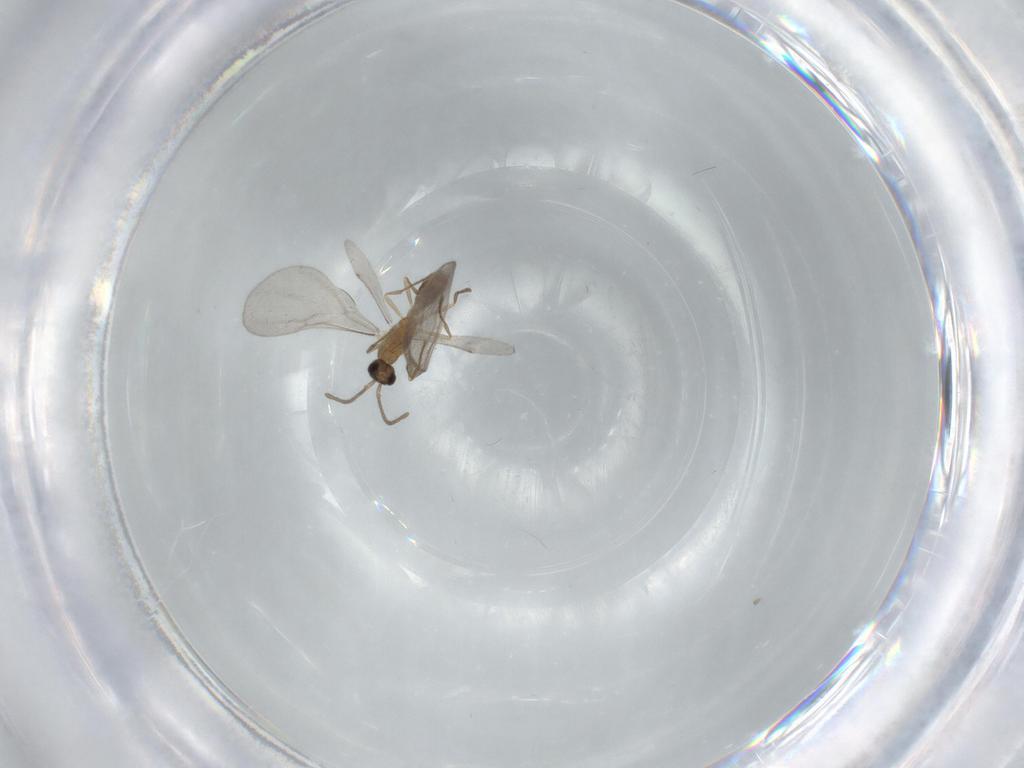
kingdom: Animalia
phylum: Arthropoda
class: Insecta
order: Hymenoptera
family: Formicidae
